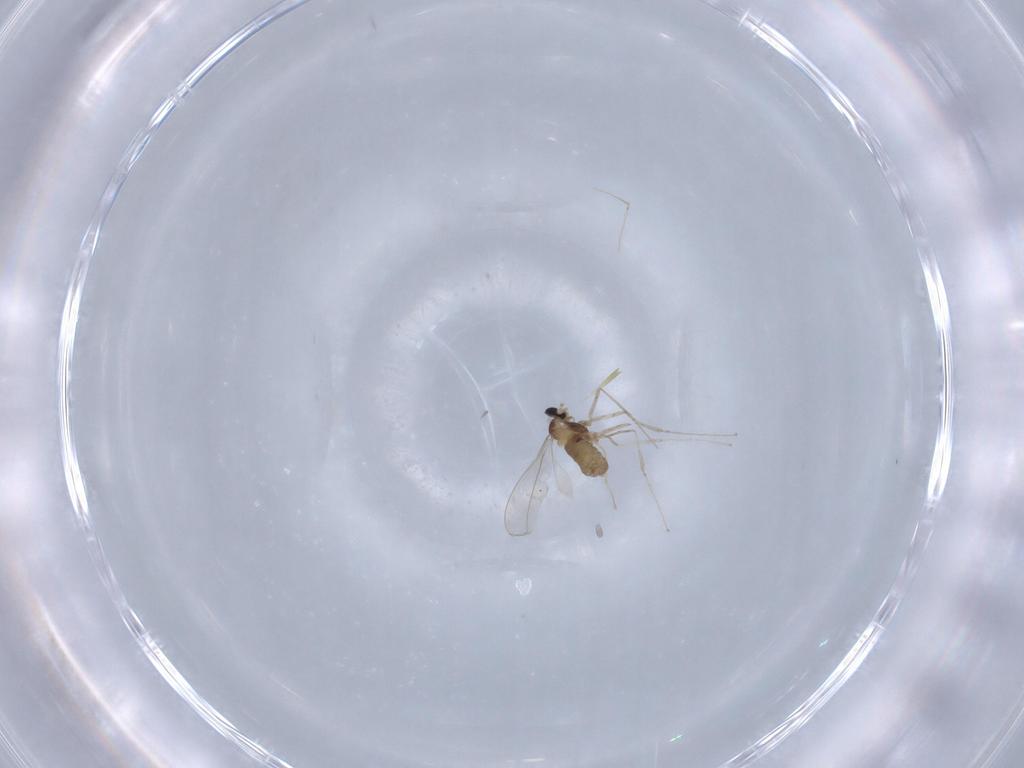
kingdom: Animalia
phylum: Arthropoda
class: Insecta
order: Diptera
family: Cecidomyiidae
